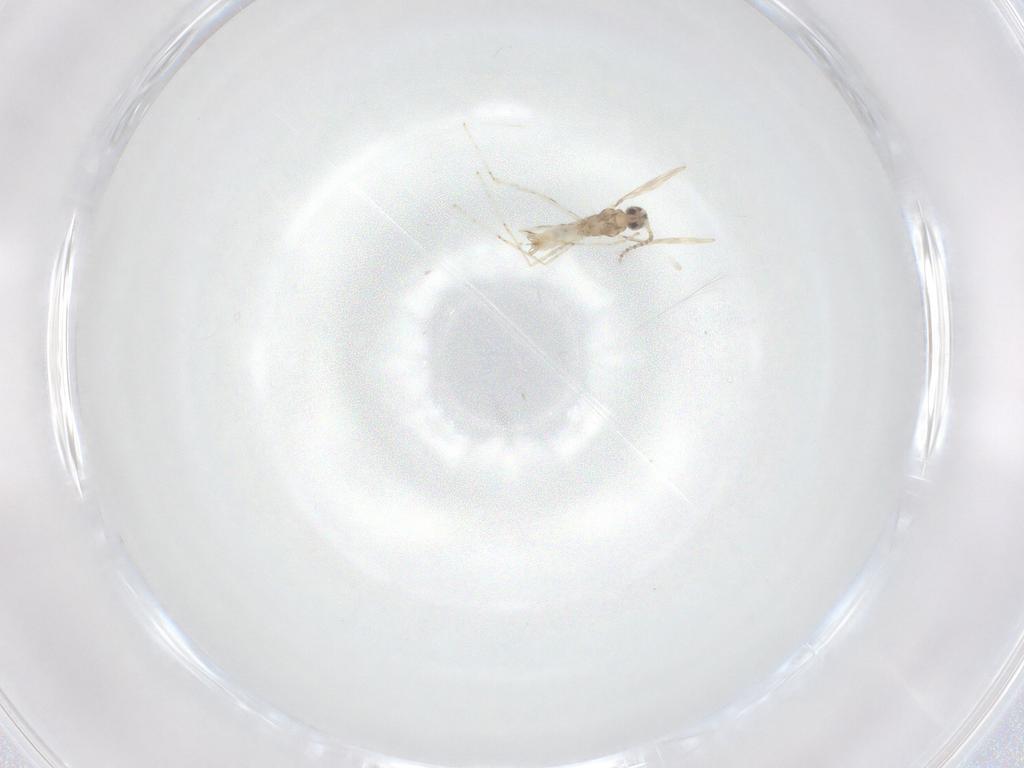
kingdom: Animalia
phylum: Arthropoda
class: Insecta
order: Diptera
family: Cecidomyiidae
